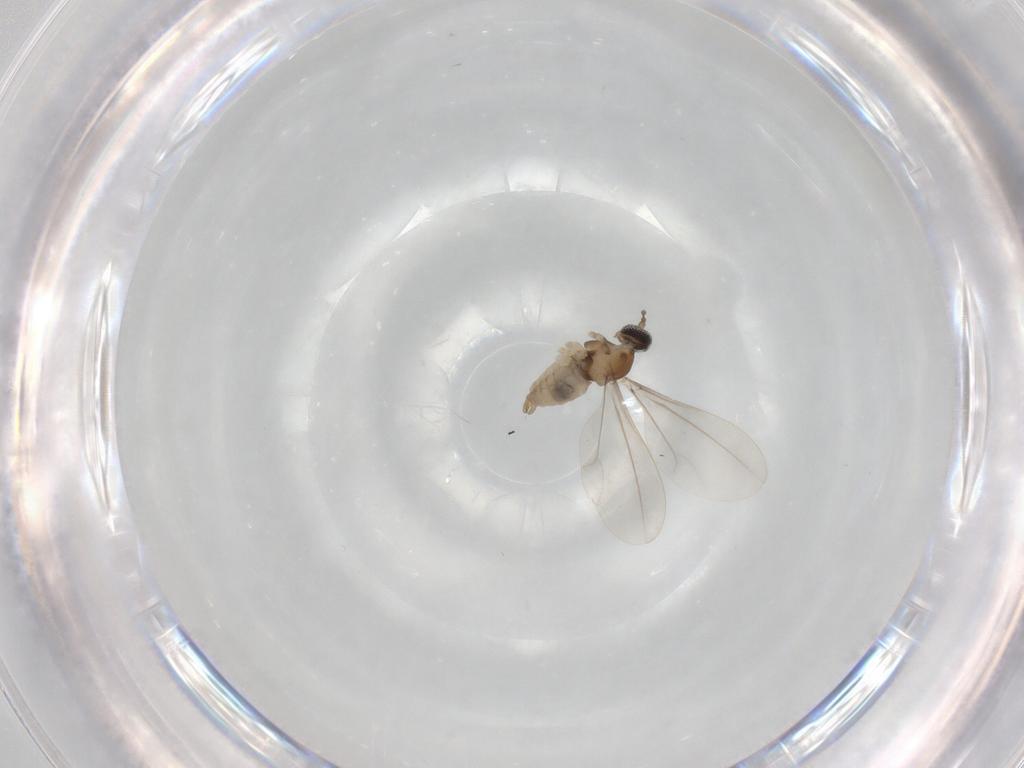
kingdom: Animalia
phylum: Arthropoda
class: Insecta
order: Diptera
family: Cecidomyiidae
